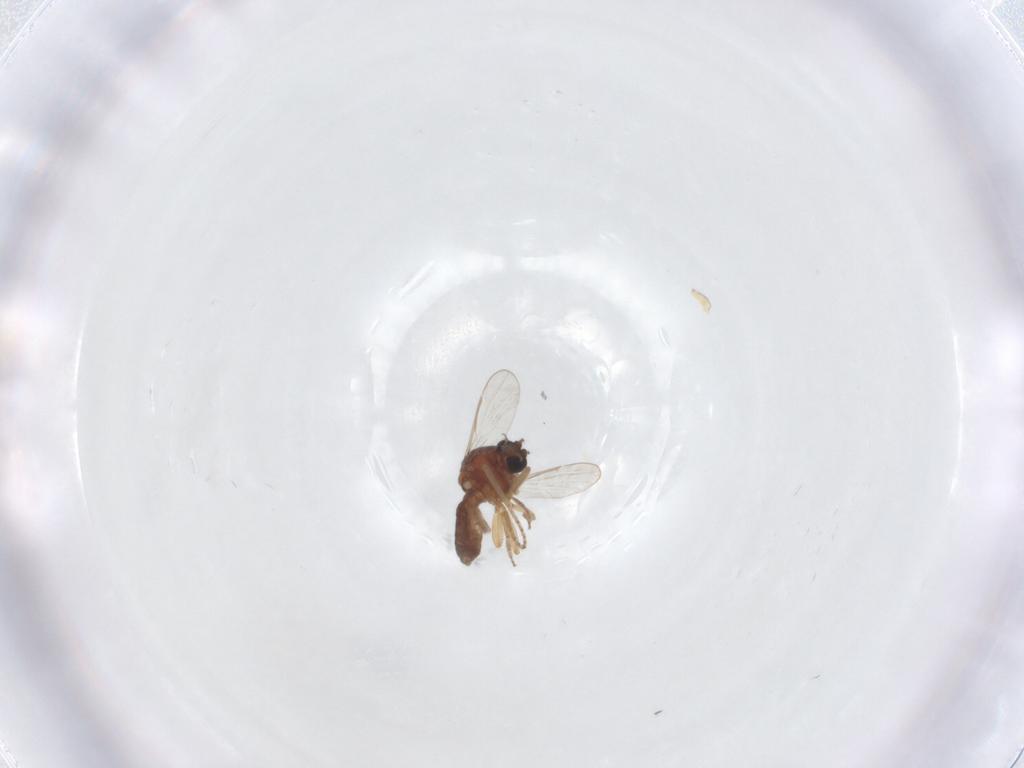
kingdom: Animalia
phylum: Arthropoda
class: Insecta
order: Diptera
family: Ceratopogonidae
